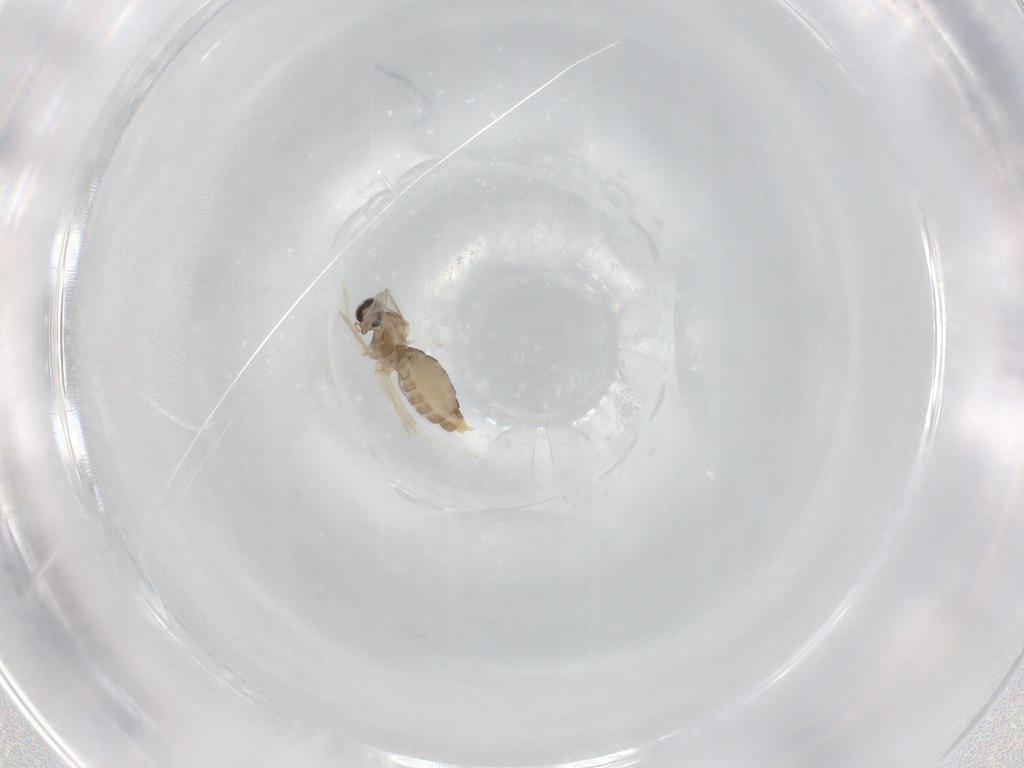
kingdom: Animalia
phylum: Arthropoda
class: Insecta
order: Diptera
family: Cecidomyiidae
